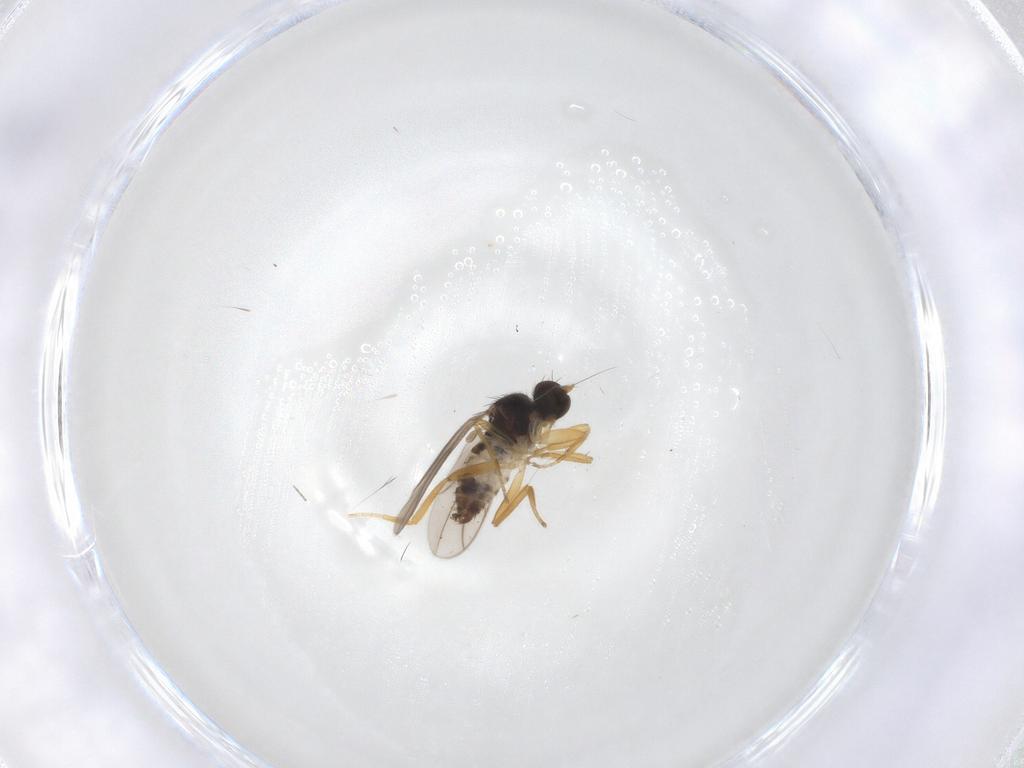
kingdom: Animalia
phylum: Arthropoda
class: Insecta
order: Diptera
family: Hybotidae
